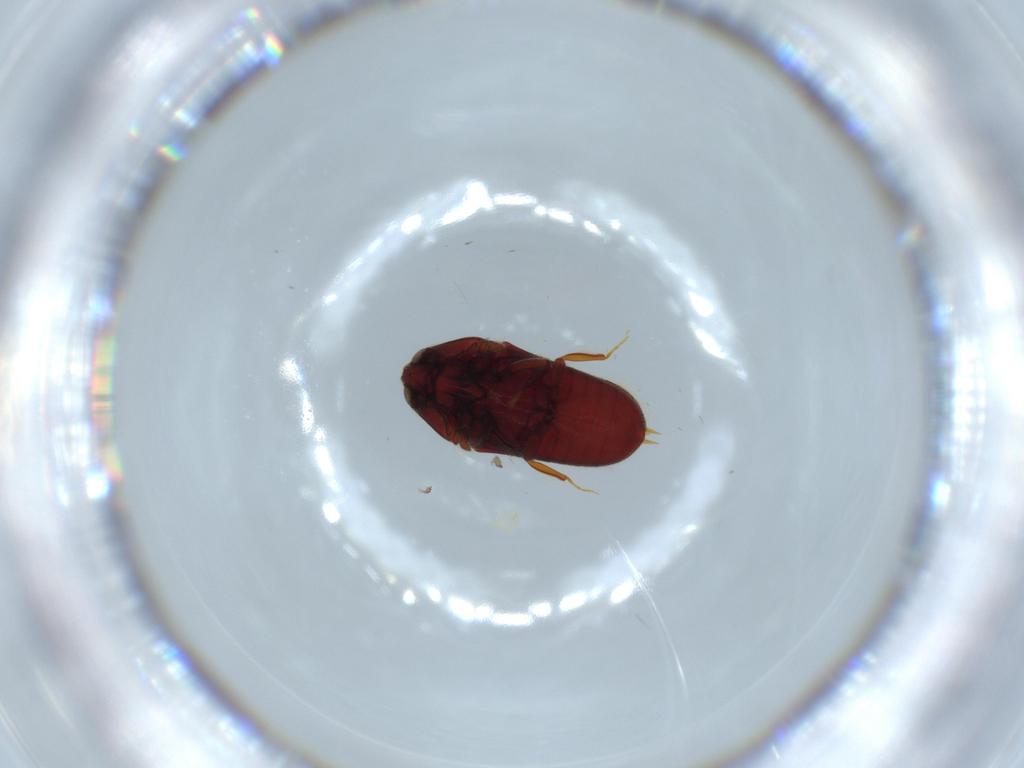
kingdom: Animalia
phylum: Arthropoda
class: Insecta
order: Coleoptera
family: Throscidae
